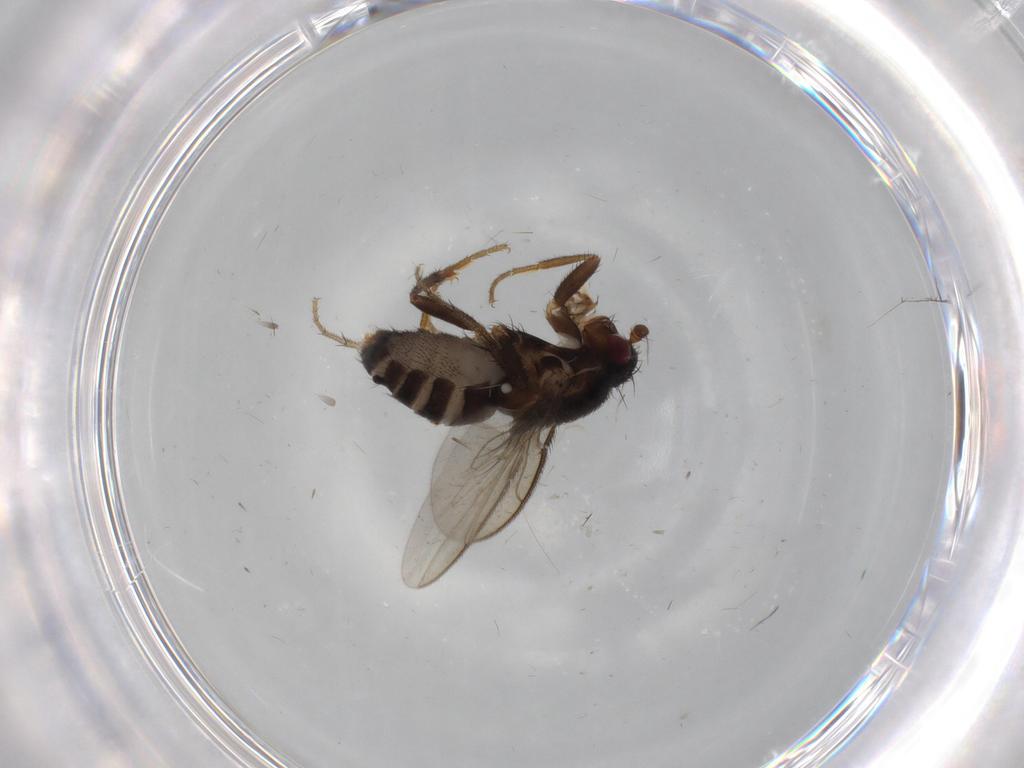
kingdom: Animalia
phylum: Arthropoda
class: Insecta
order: Diptera
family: Sphaeroceridae
